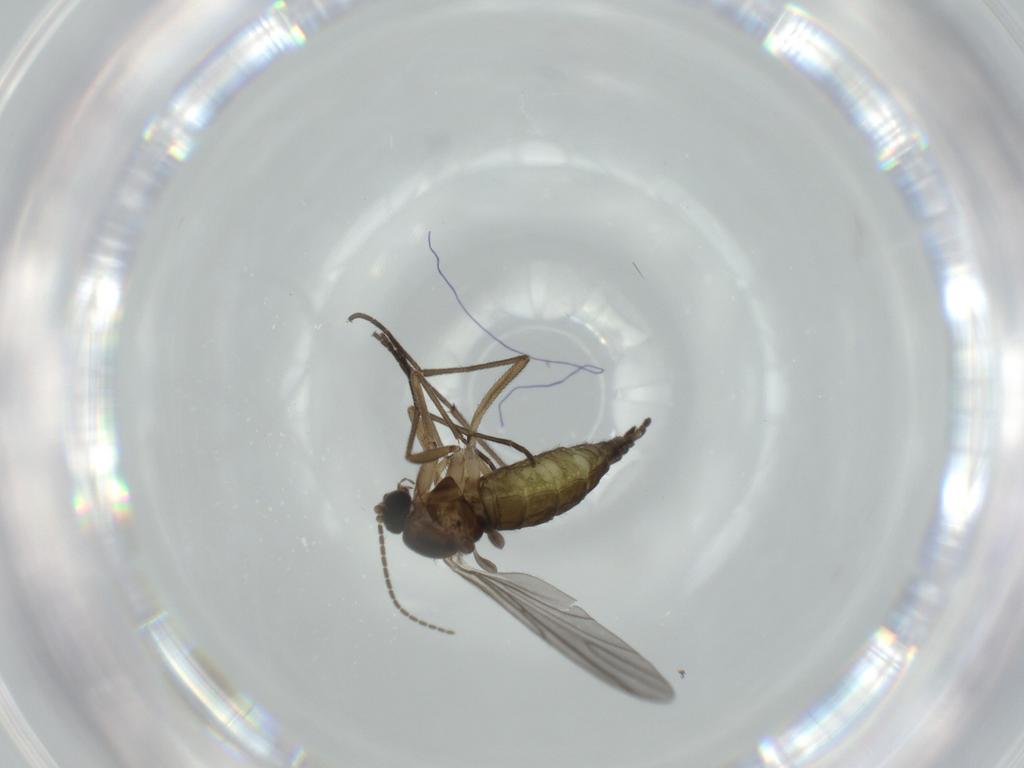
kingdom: Animalia
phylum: Arthropoda
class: Insecta
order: Diptera
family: Sciaridae
